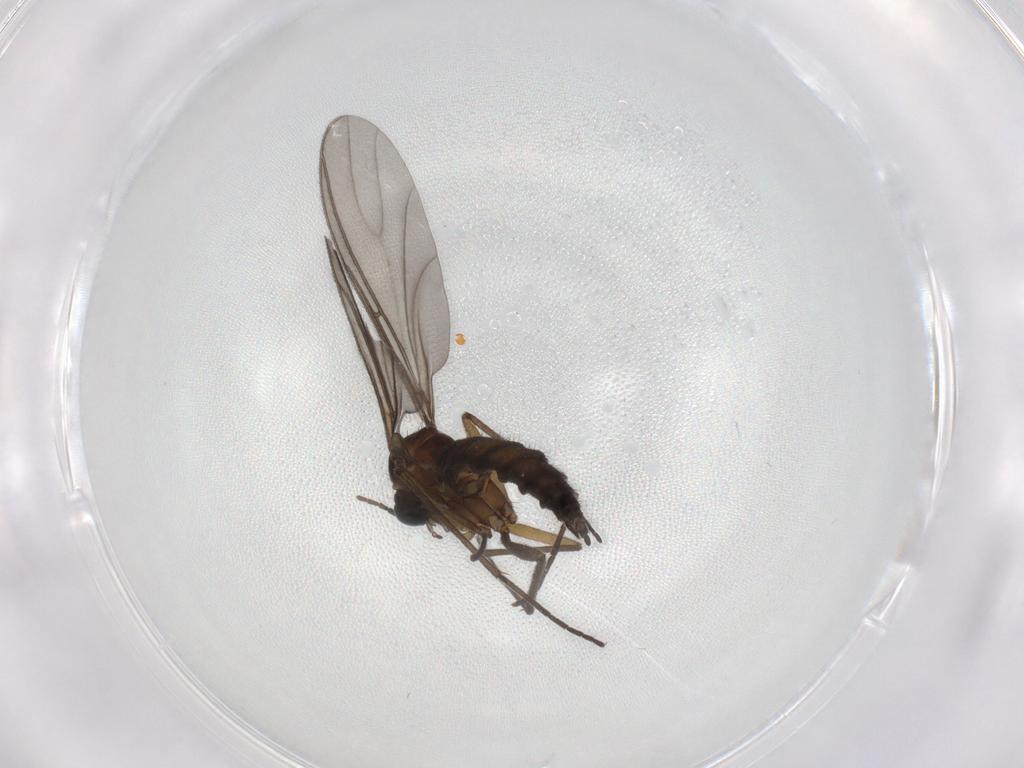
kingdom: Animalia
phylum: Arthropoda
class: Insecta
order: Diptera
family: Sciaridae
